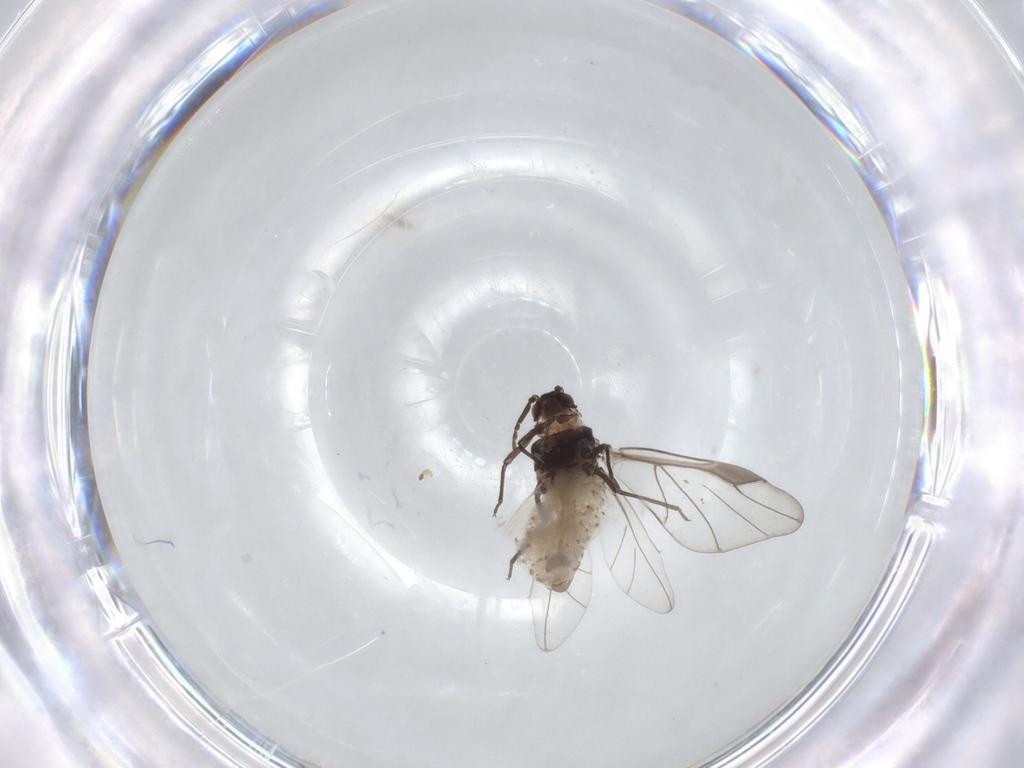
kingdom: Animalia
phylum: Arthropoda
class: Insecta
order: Hemiptera
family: Aphididae
